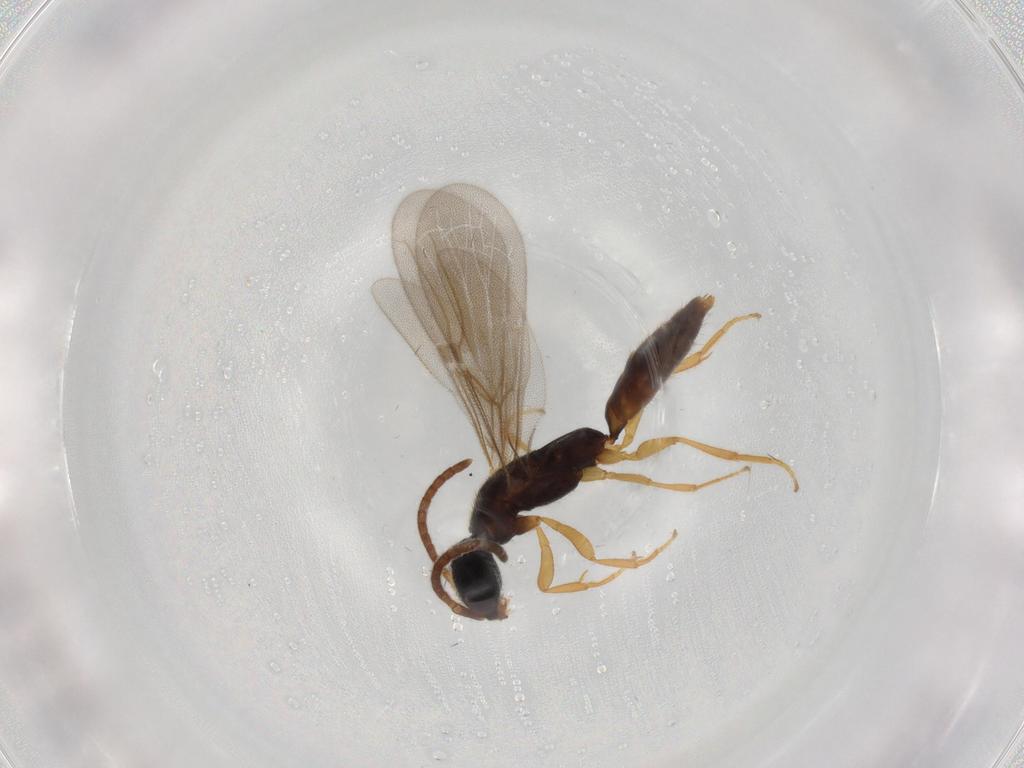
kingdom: Animalia
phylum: Arthropoda
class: Insecta
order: Hymenoptera
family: Bethylidae
